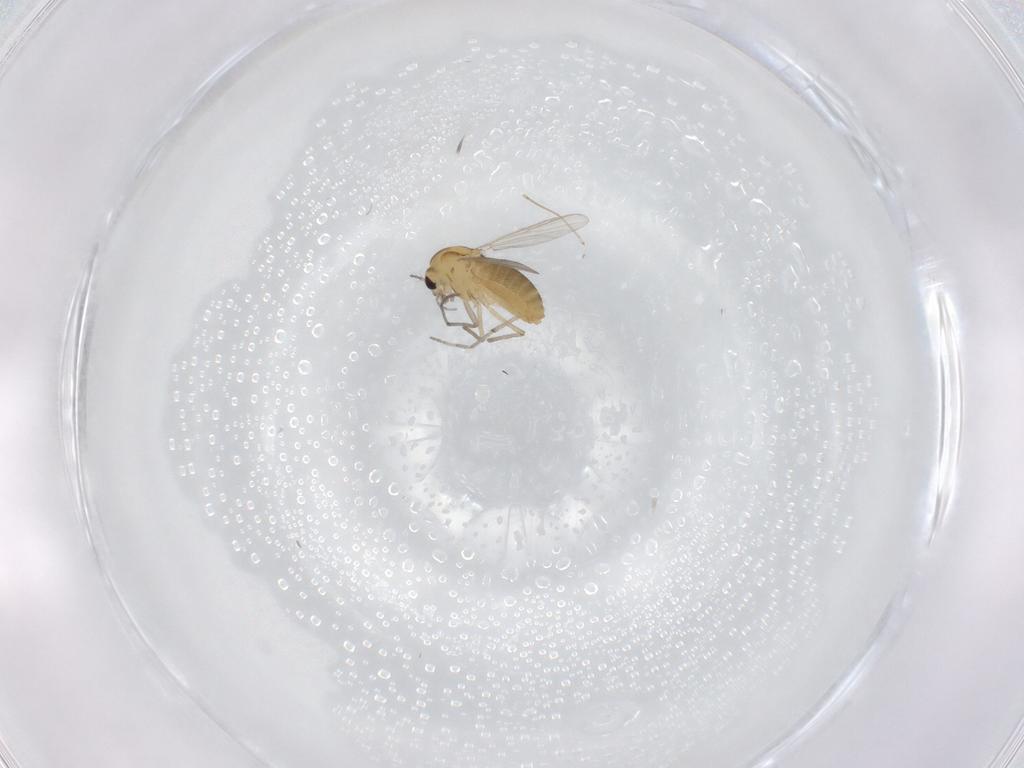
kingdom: Animalia
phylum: Arthropoda
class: Insecta
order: Diptera
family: Chironomidae
